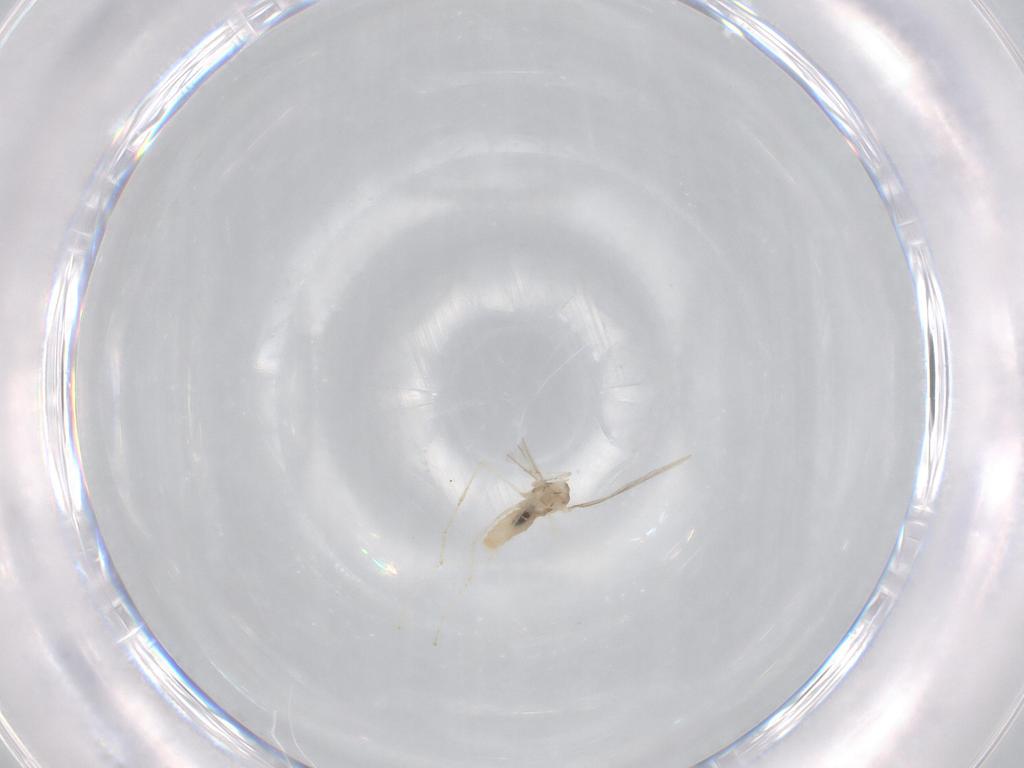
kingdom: Animalia
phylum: Arthropoda
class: Insecta
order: Diptera
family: Cecidomyiidae
